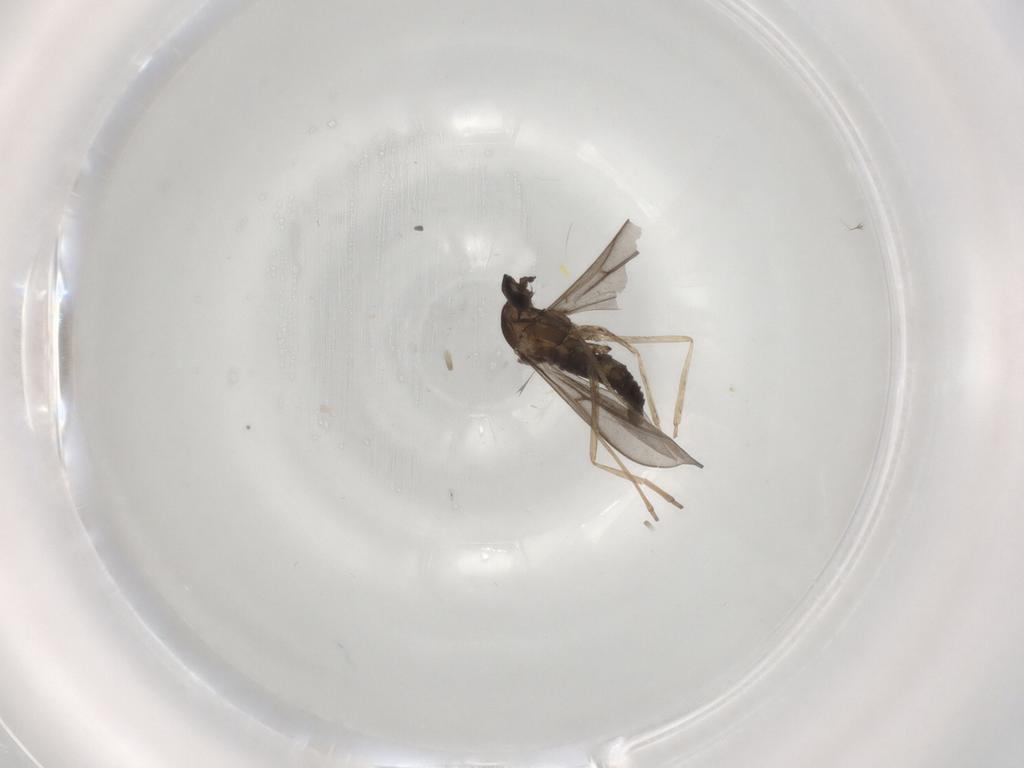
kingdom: Animalia
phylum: Arthropoda
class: Insecta
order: Diptera
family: Cecidomyiidae
